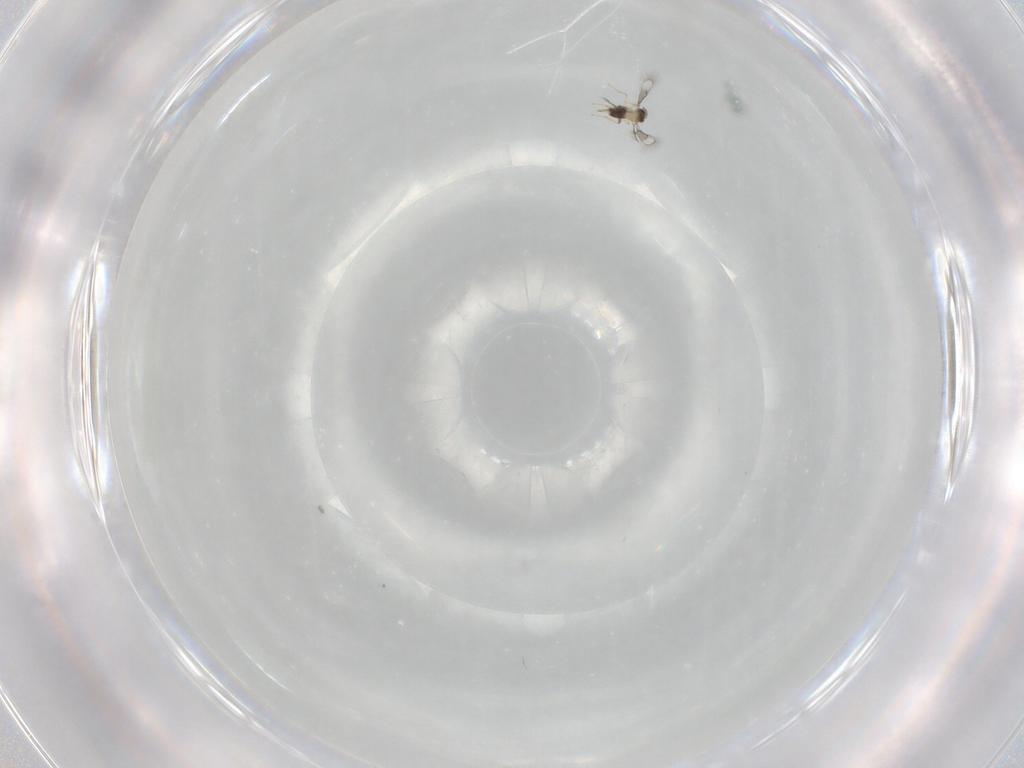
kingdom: Animalia
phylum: Arthropoda
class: Insecta
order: Hymenoptera
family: Trichogrammatidae
